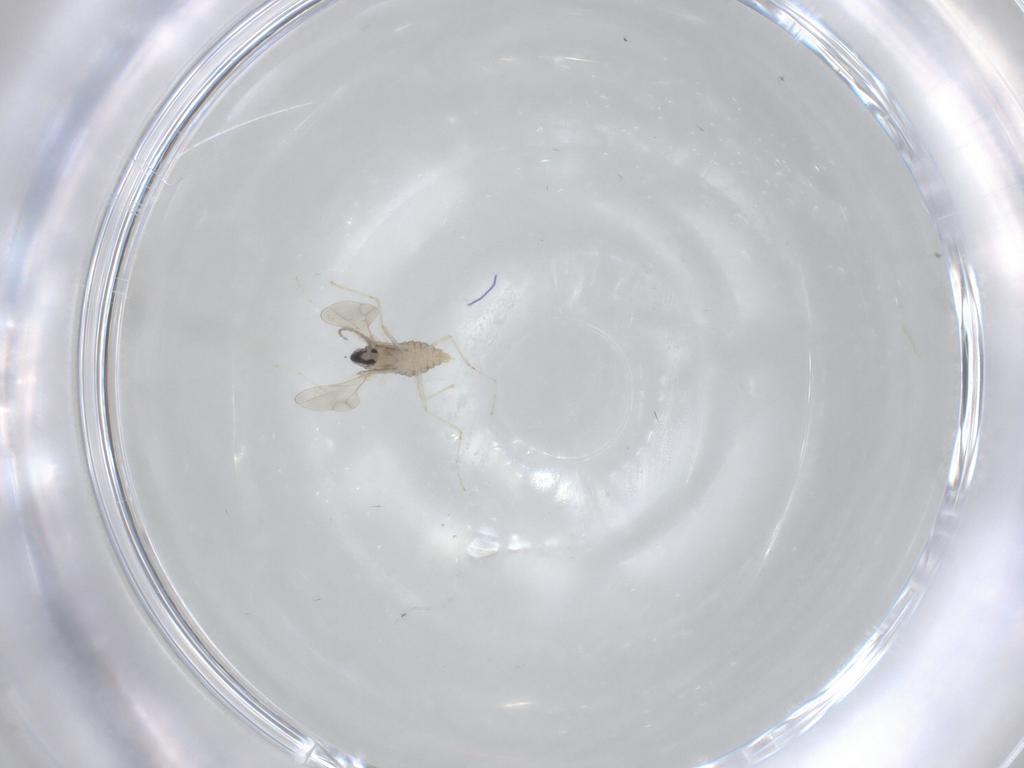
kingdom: Animalia
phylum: Arthropoda
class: Insecta
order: Diptera
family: Cecidomyiidae
